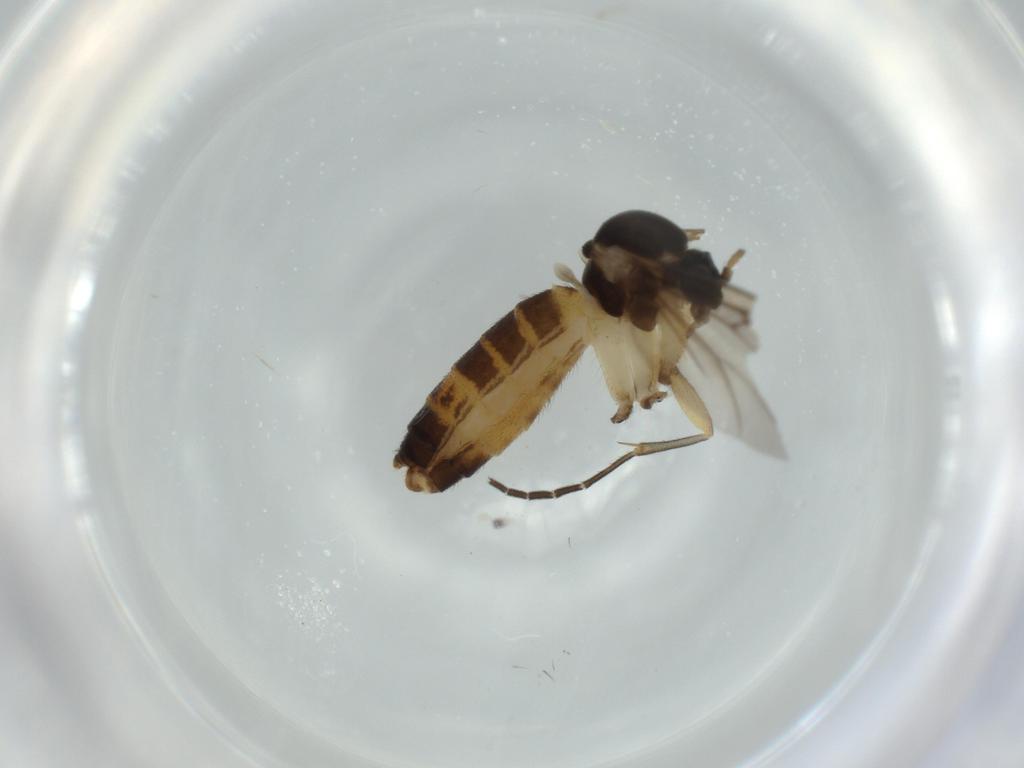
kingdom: Animalia
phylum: Arthropoda
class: Insecta
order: Diptera
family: Mycetophilidae
